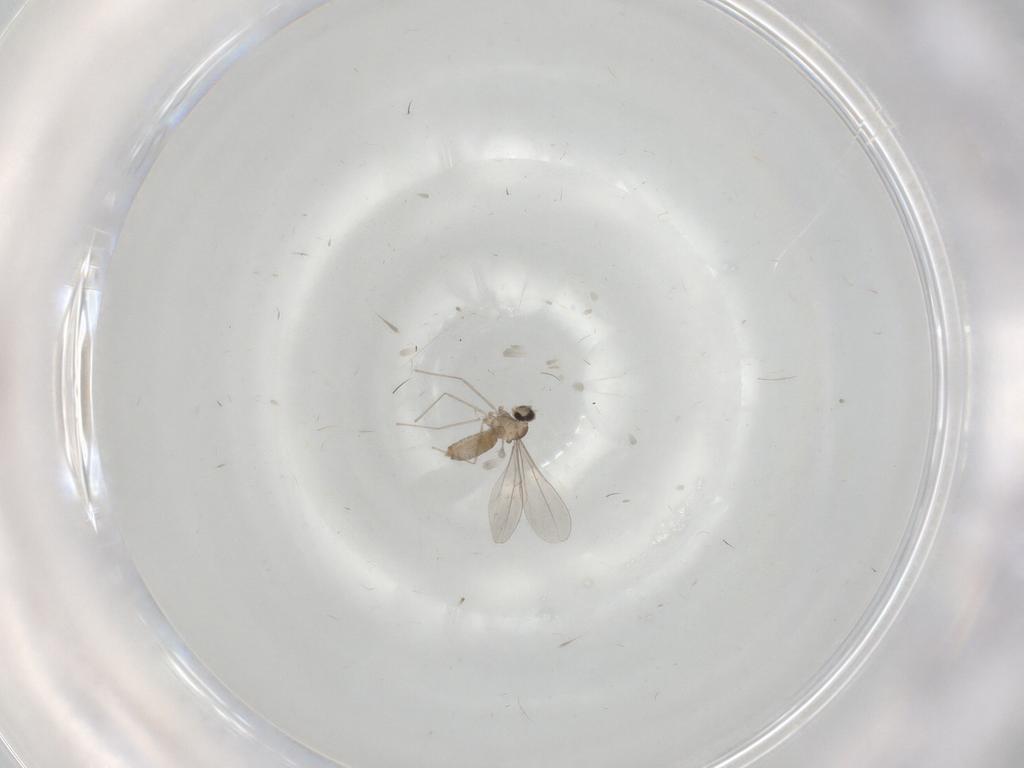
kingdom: Animalia
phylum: Arthropoda
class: Insecta
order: Diptera
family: Cecidomyiidae
